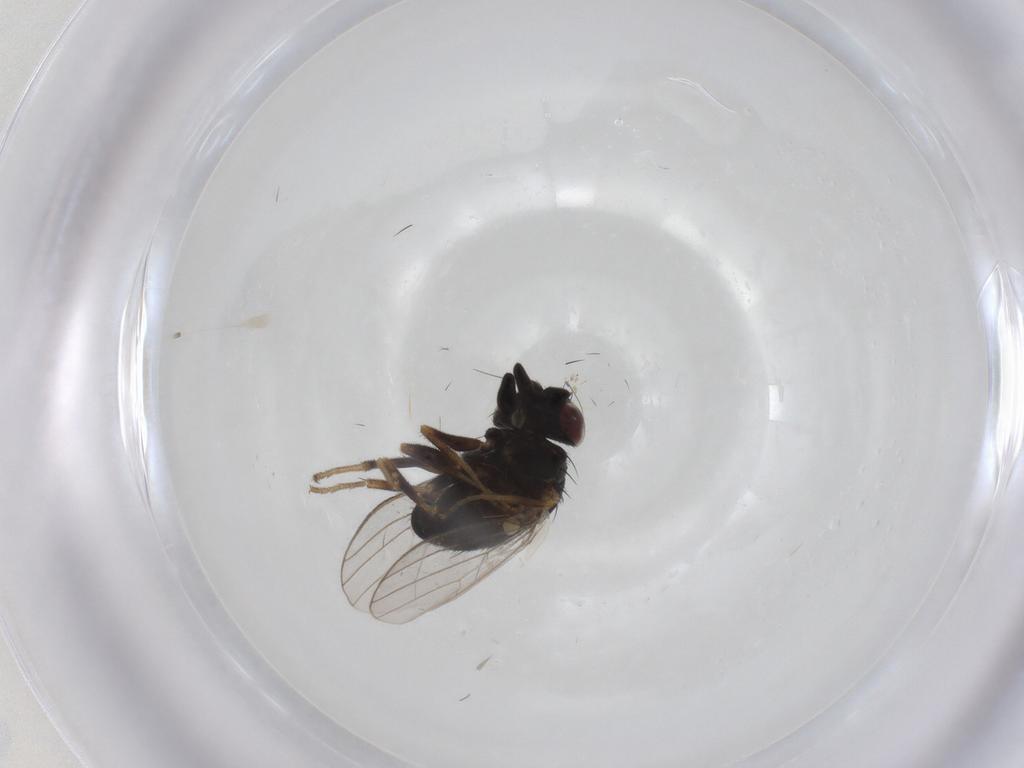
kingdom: Animalia
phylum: Arthropoda
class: Insecta
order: Diptera
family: Milichiidae
